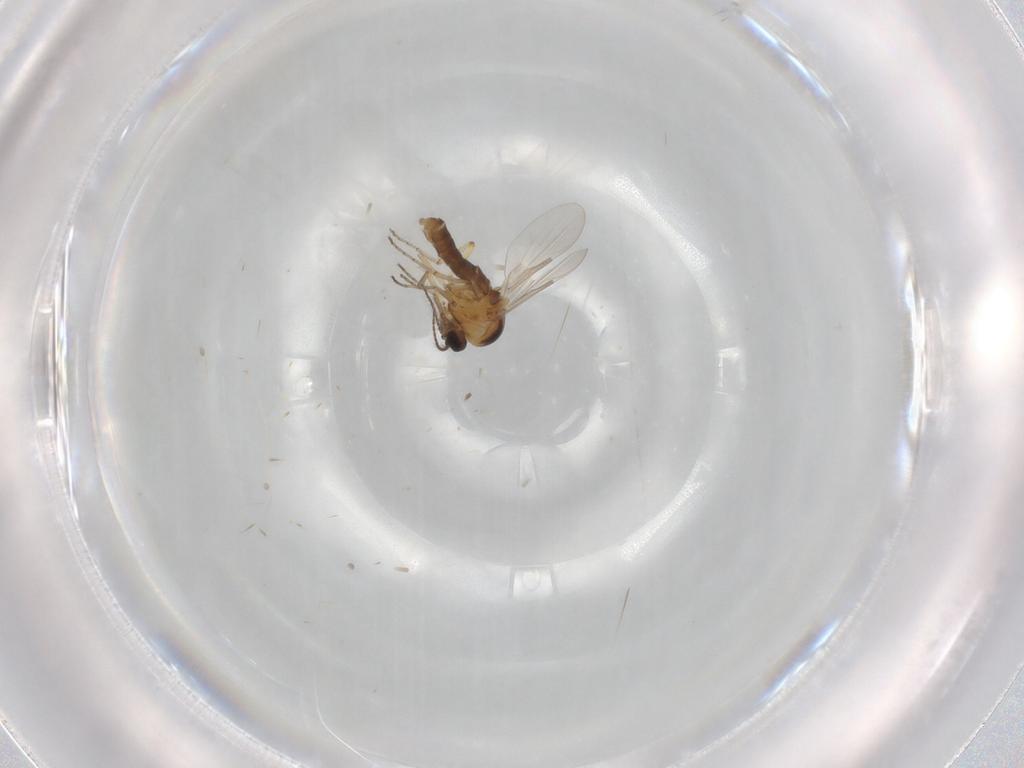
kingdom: Animalia
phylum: Arthropoda
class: Insecta
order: Diptera
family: Ceratopogonidae
